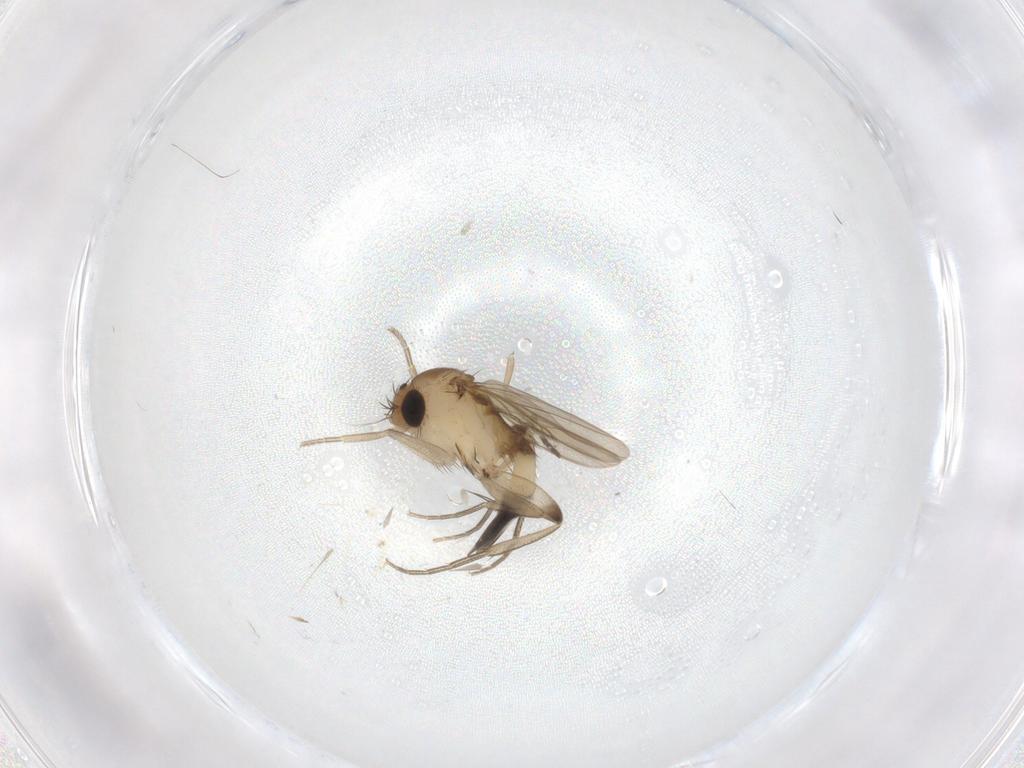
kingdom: Animalia
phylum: Arthropoda
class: Insecta
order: Diptera
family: Phoridae
